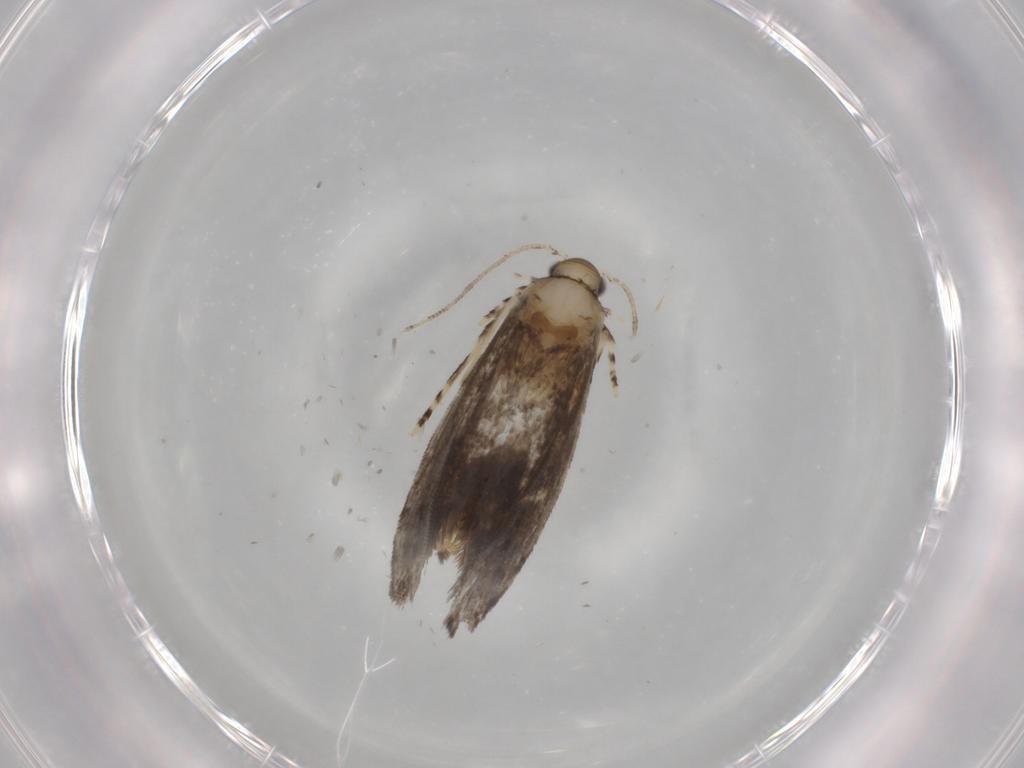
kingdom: Animalia
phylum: Arthropoda
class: Insecta
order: Lepidoptera
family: Tineidae
